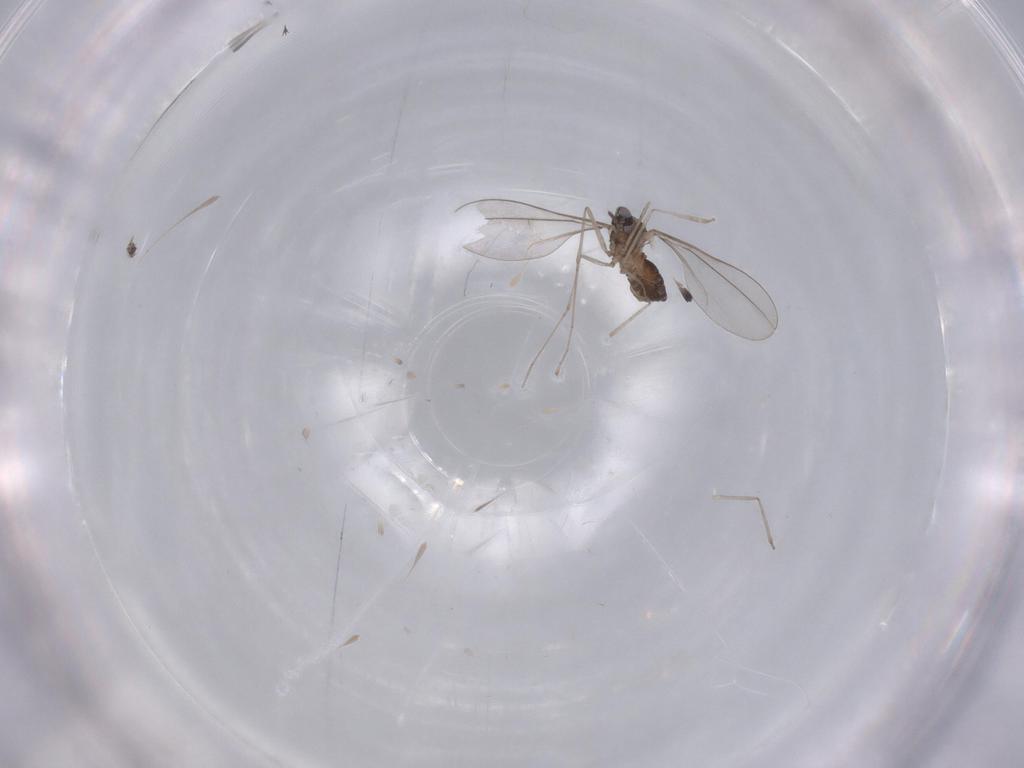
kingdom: Animalia
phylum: Arthropoda
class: Insecta
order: Diptera
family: Cecidomyiidae
